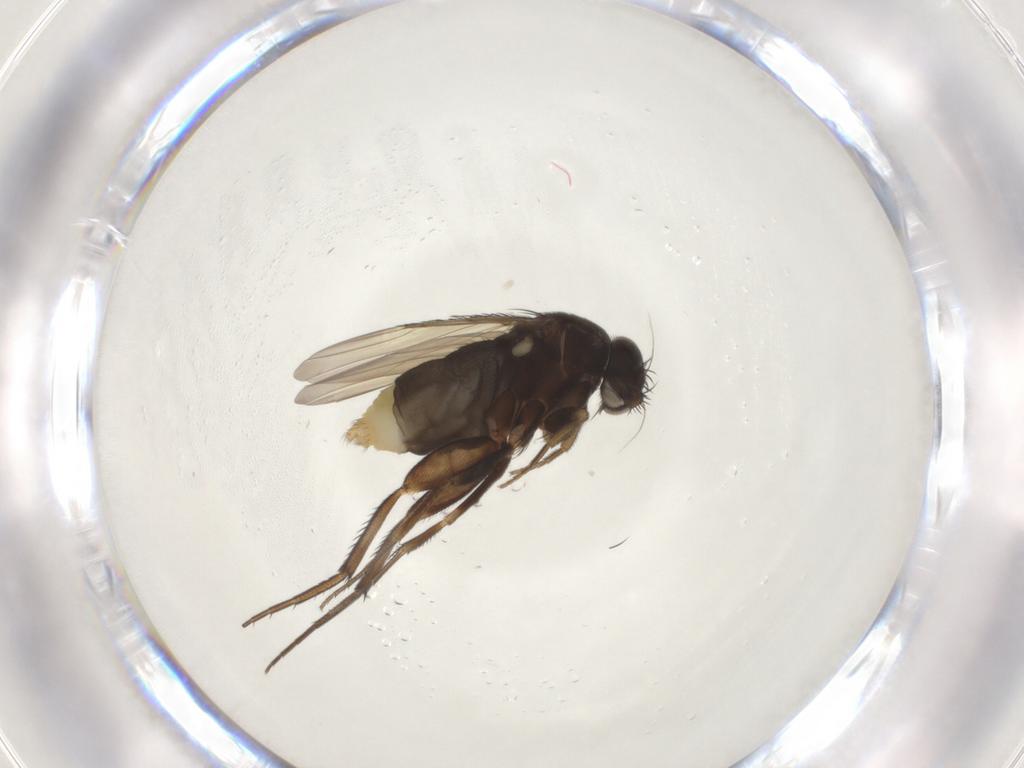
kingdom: Animalia
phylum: Arthropoda
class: Insecta
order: Diptera
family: Phoridae
